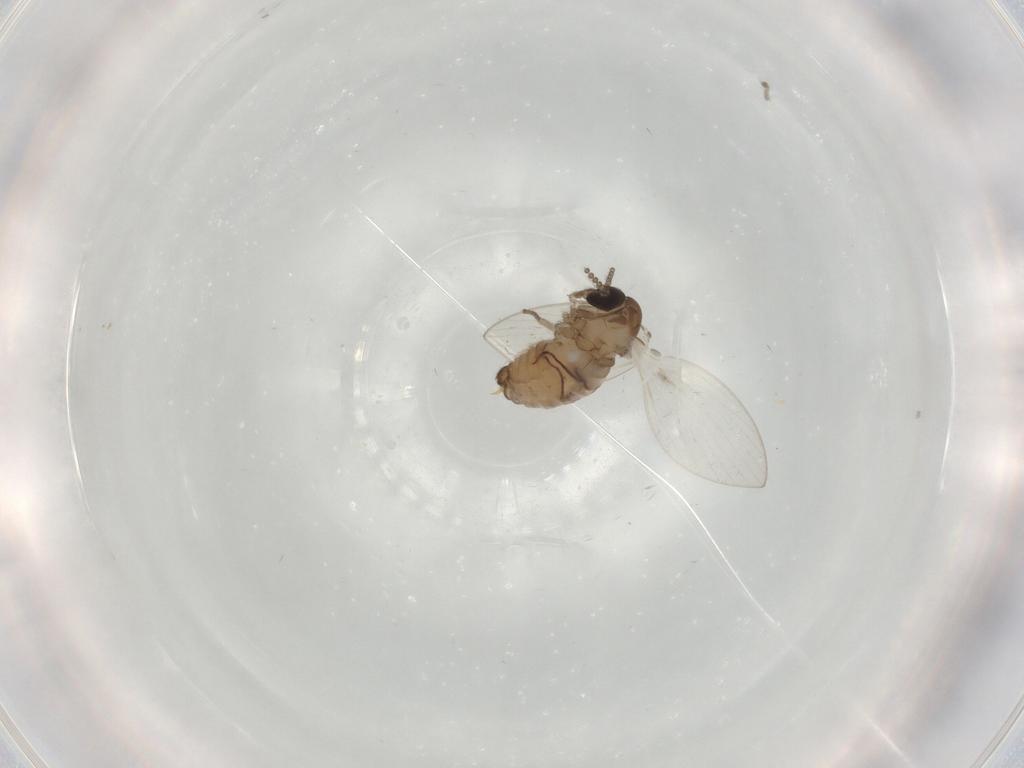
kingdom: Animalia
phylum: Arthropoda
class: Insecta
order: Diptera
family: Psychodidae
